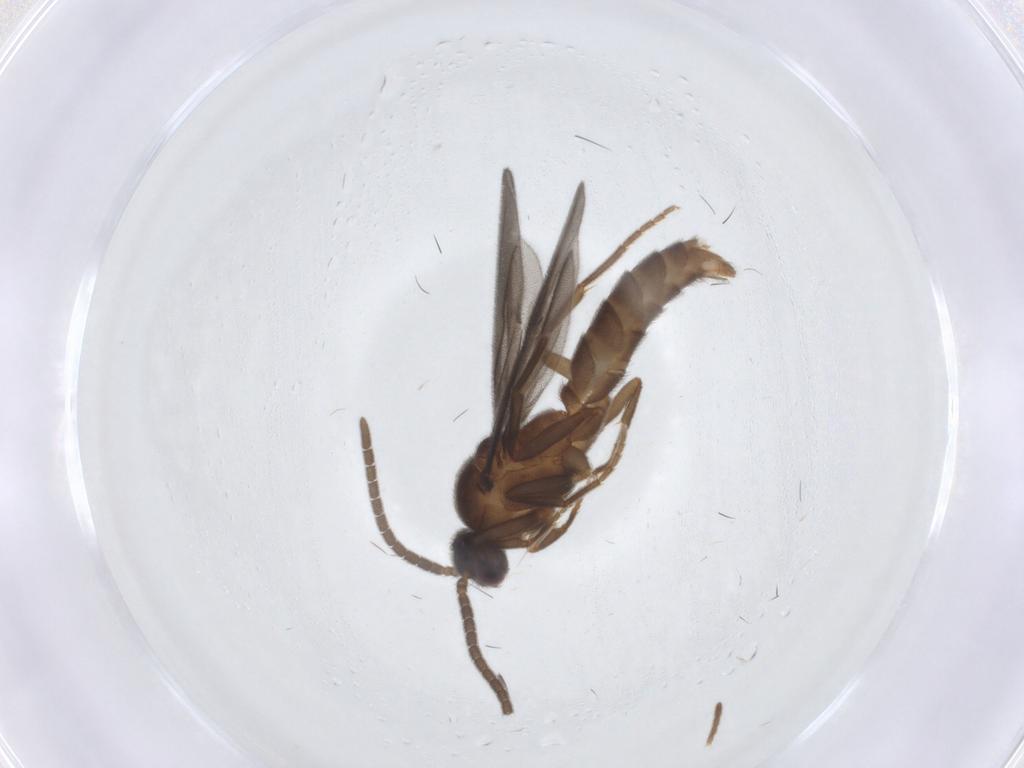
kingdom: Animalia
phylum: Arthropoda
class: Insecta
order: Hymenoptera
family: Formicidae
